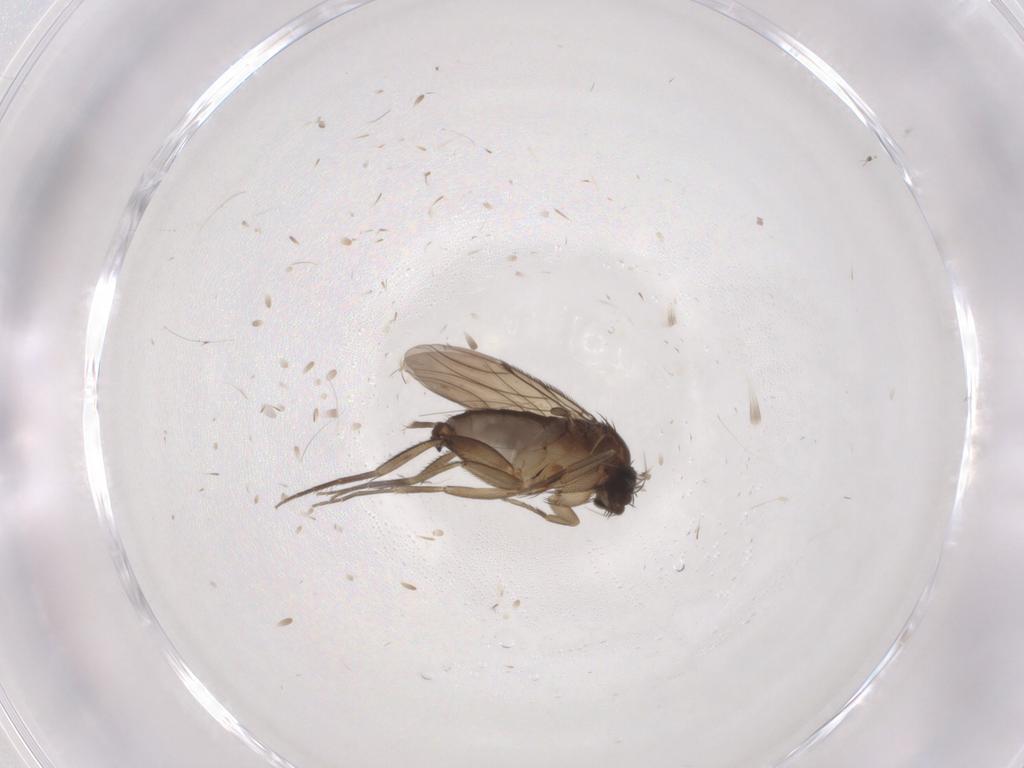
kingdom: Animalia
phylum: Arthropoda
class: Insecta
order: Diptera
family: Phoridae
